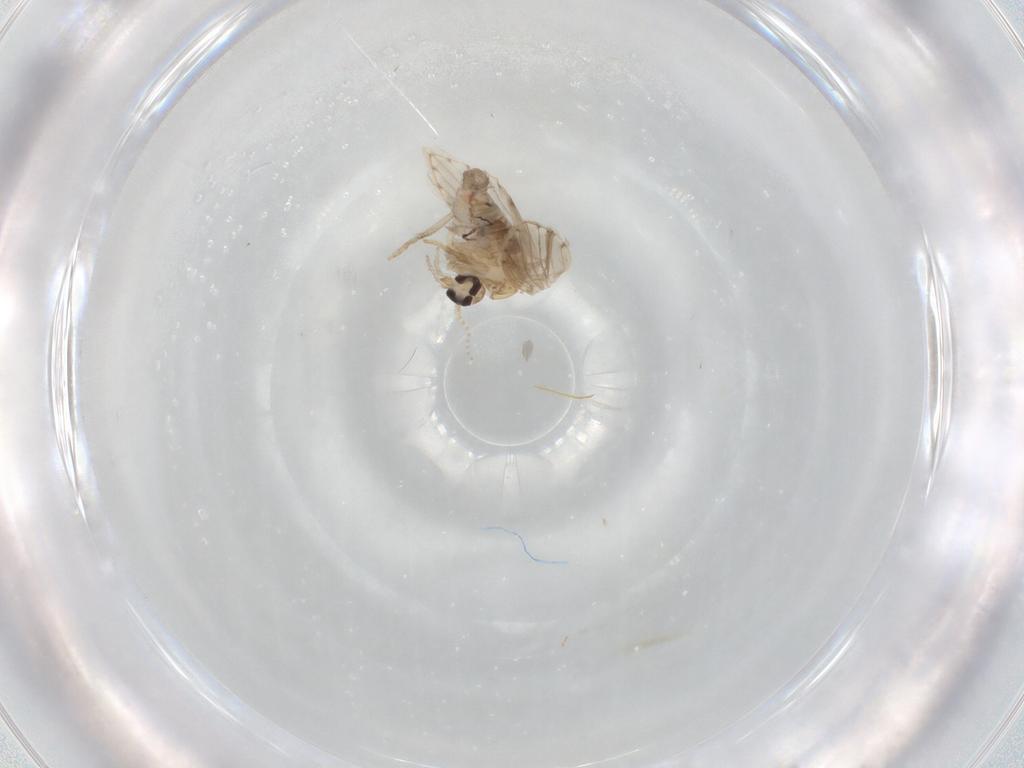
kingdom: Animalia
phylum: Arthropoda
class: Insecta
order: Diptera
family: Psychodidae
